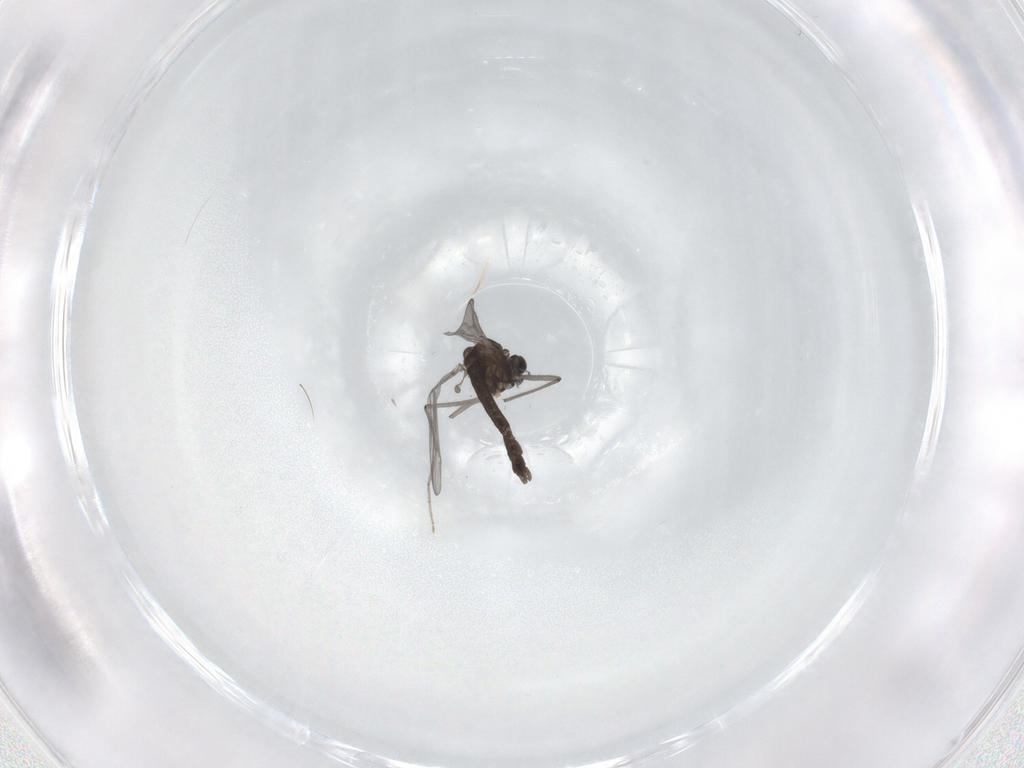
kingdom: Animalia
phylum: Arthropoda
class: Insecta
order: Diptera
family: Chironomidae
